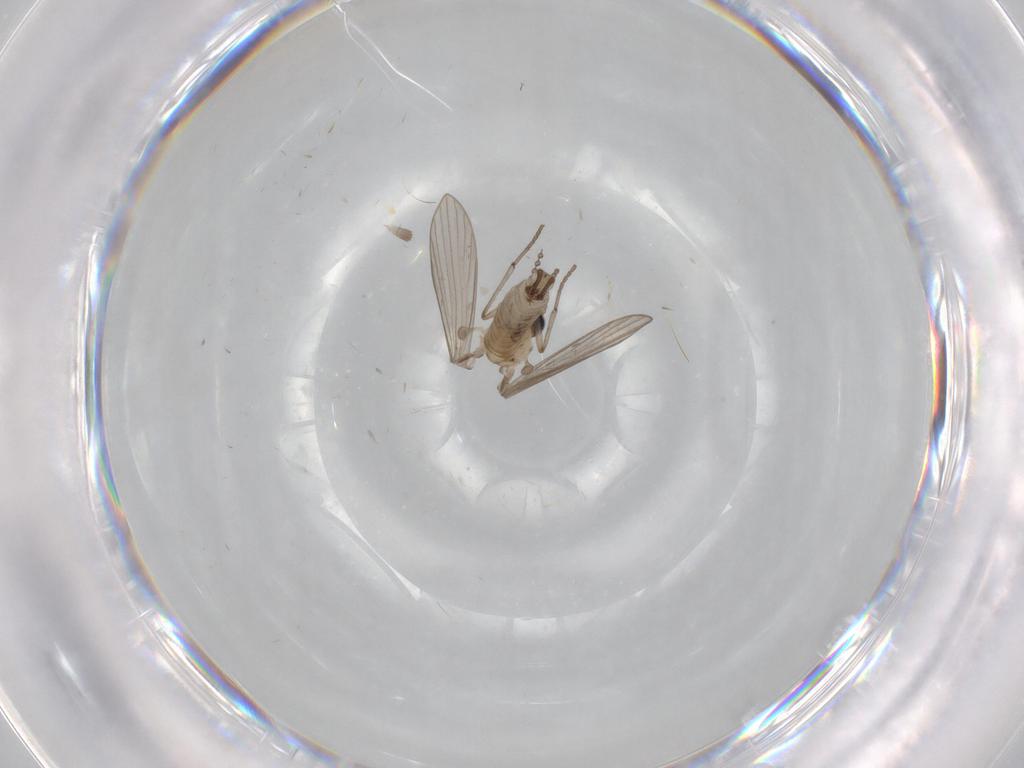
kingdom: Animalia
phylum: Arthropoda
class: Insecta
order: Diptera
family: Psychodidae
